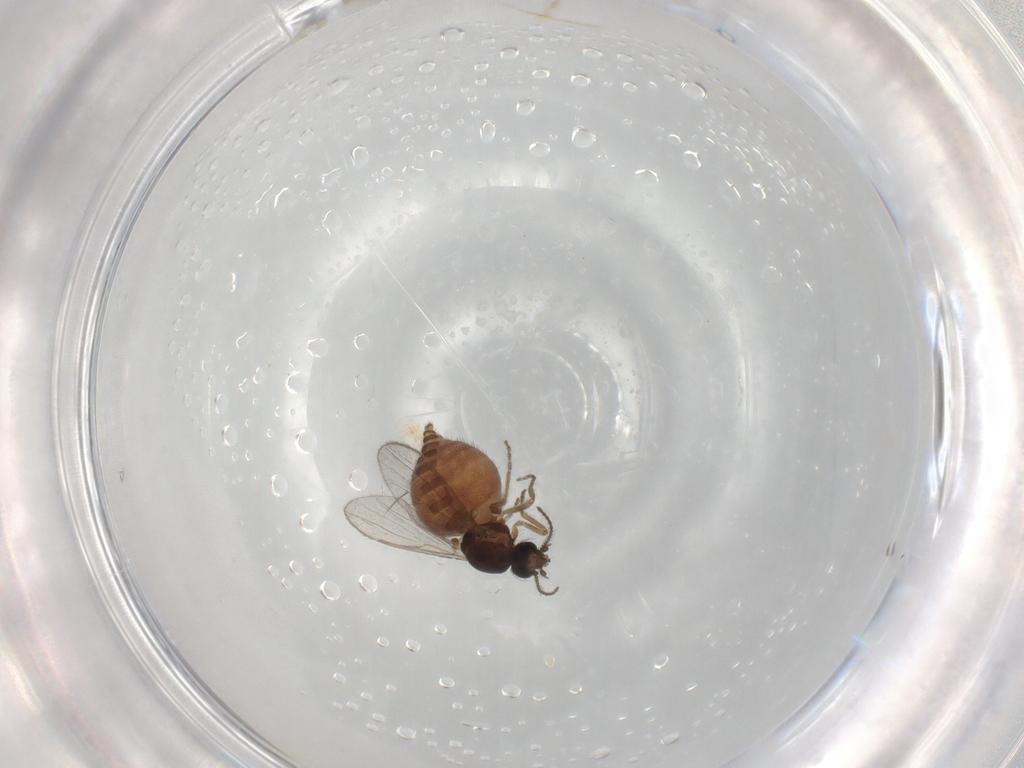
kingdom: Animalia
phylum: Arthropoda
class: Insecta
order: Diptera
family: Ceratopogonidae
